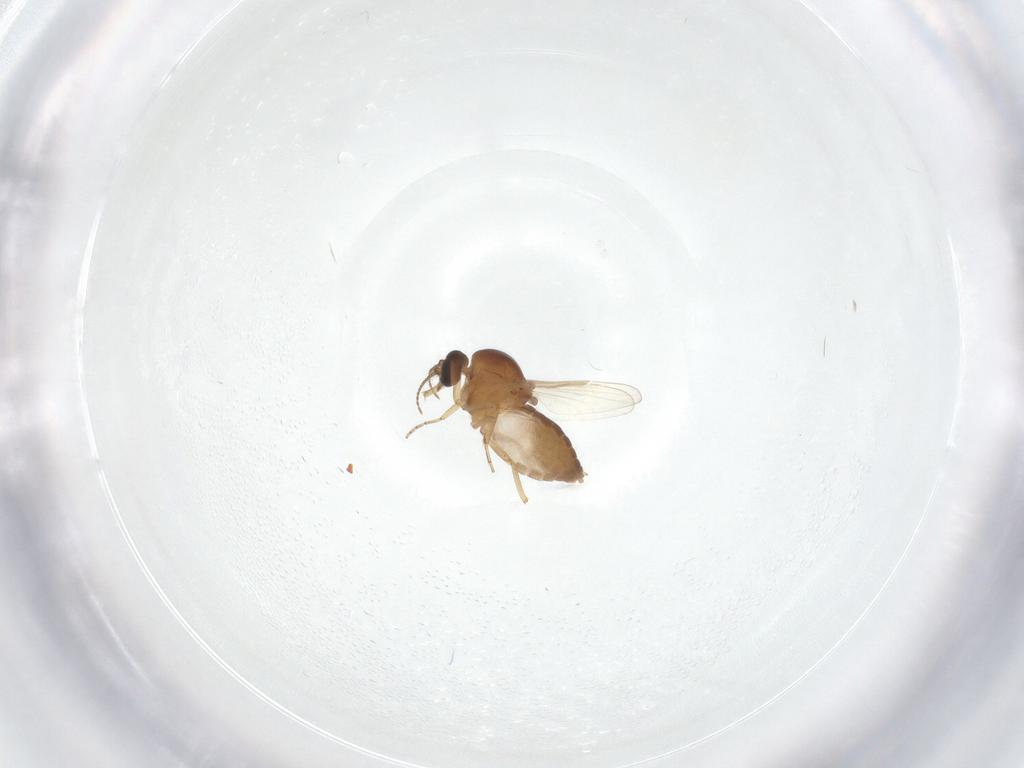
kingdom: Animalia
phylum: Arthropoda
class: Insecta
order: Diptera
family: Ceratopogonidae
